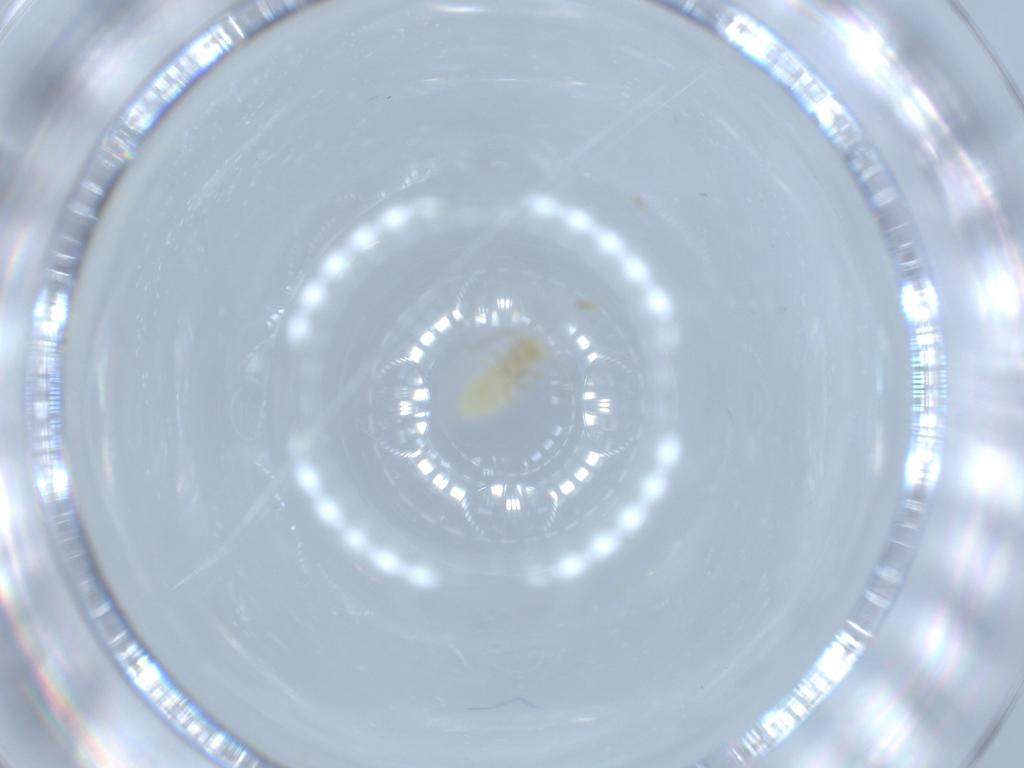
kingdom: Animalia
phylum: Arthropoda
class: Insecta
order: Psocodea
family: Caeciliusidae
